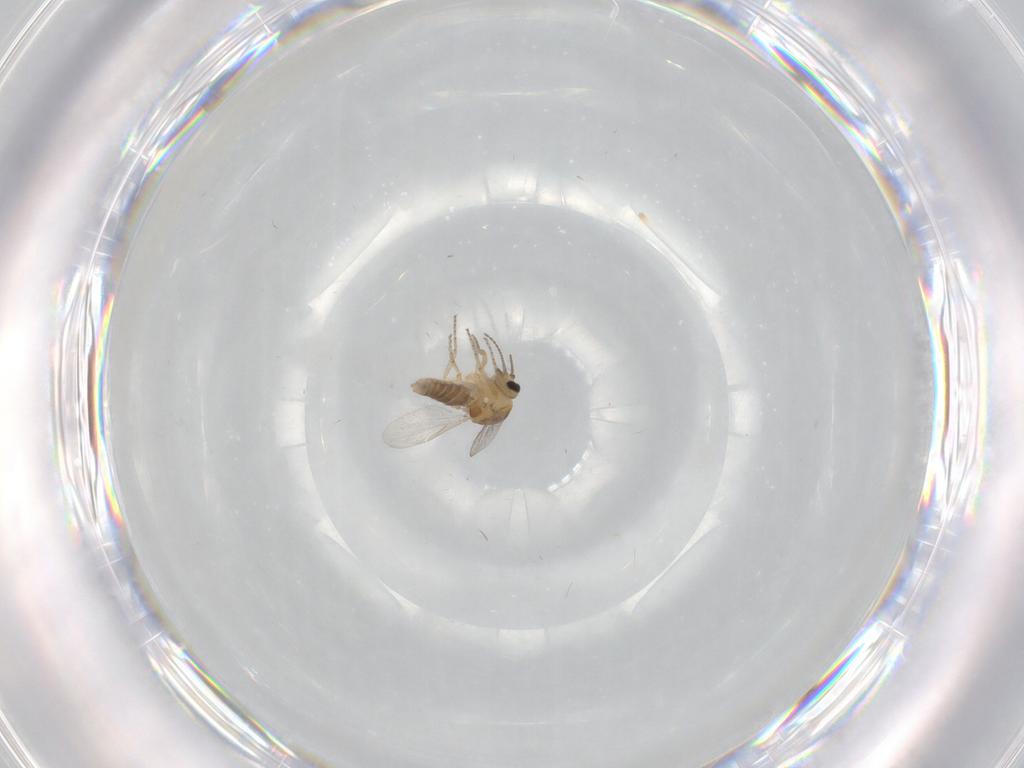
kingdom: Animalia
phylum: Arthropoda
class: Insecta
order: Diptera
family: Ceratopogonidae
